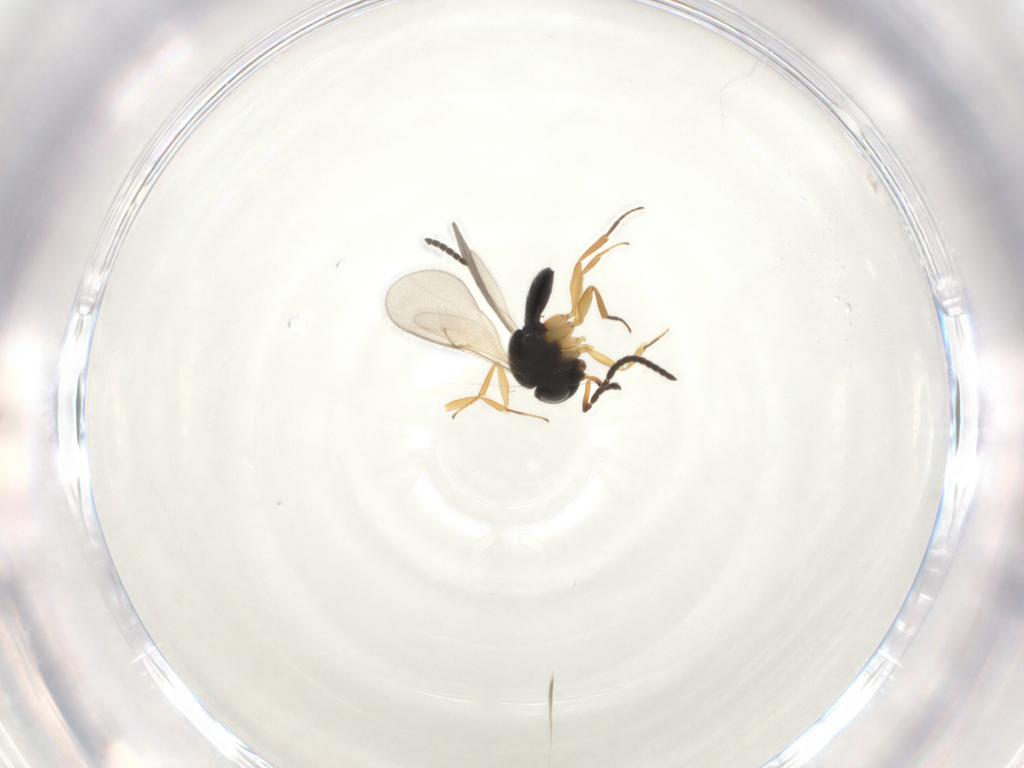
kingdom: Animalia
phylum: Arthropoda
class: Insecta
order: Hymenoptera
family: Scelionidae
